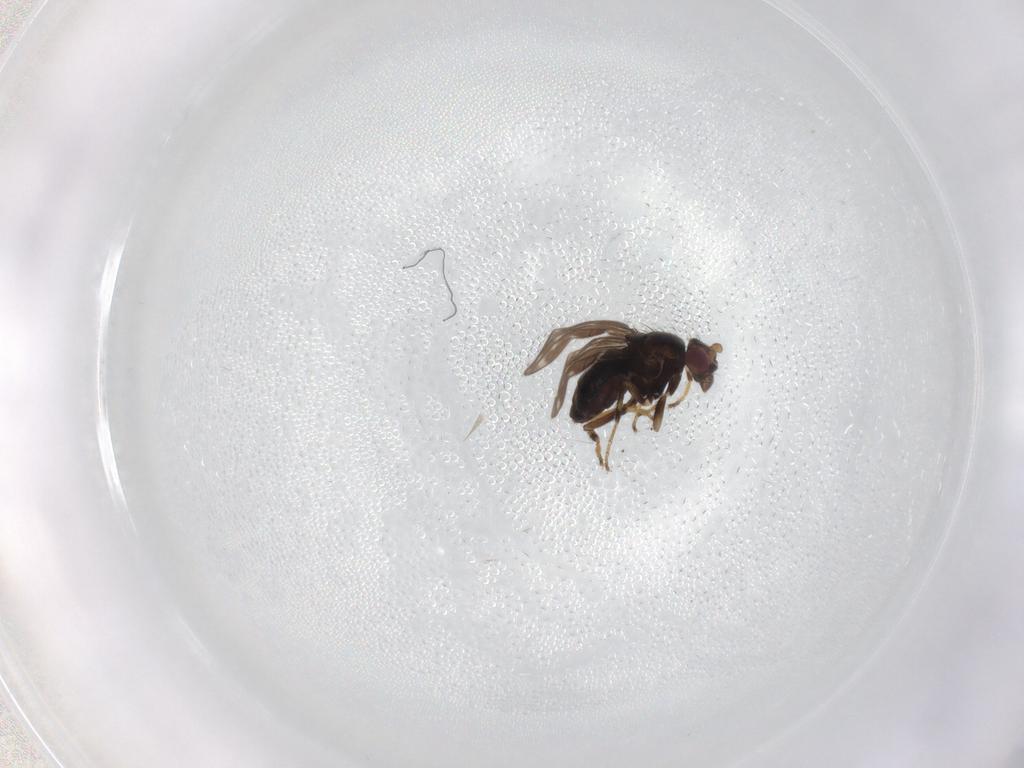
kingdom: Animalia
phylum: Arthropoda
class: Insecta
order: Diptera
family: Sphaeroceridae
